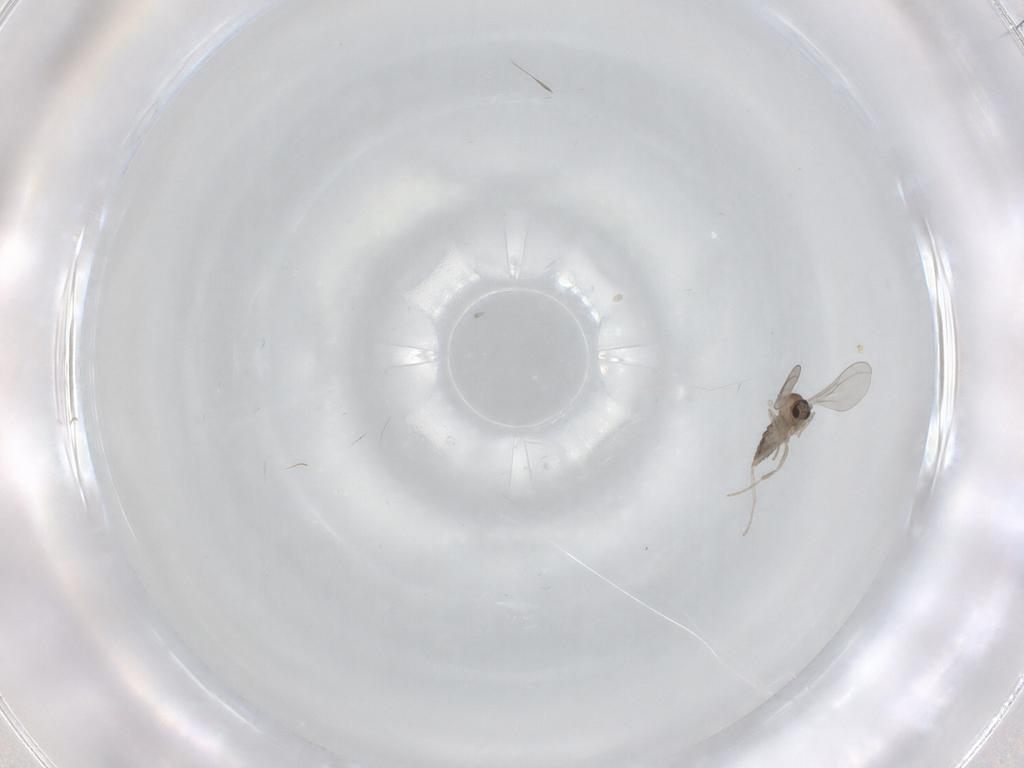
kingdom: Animalia
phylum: Arthropoda
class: Insecta
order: Diptera
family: Cecidomyiidae
